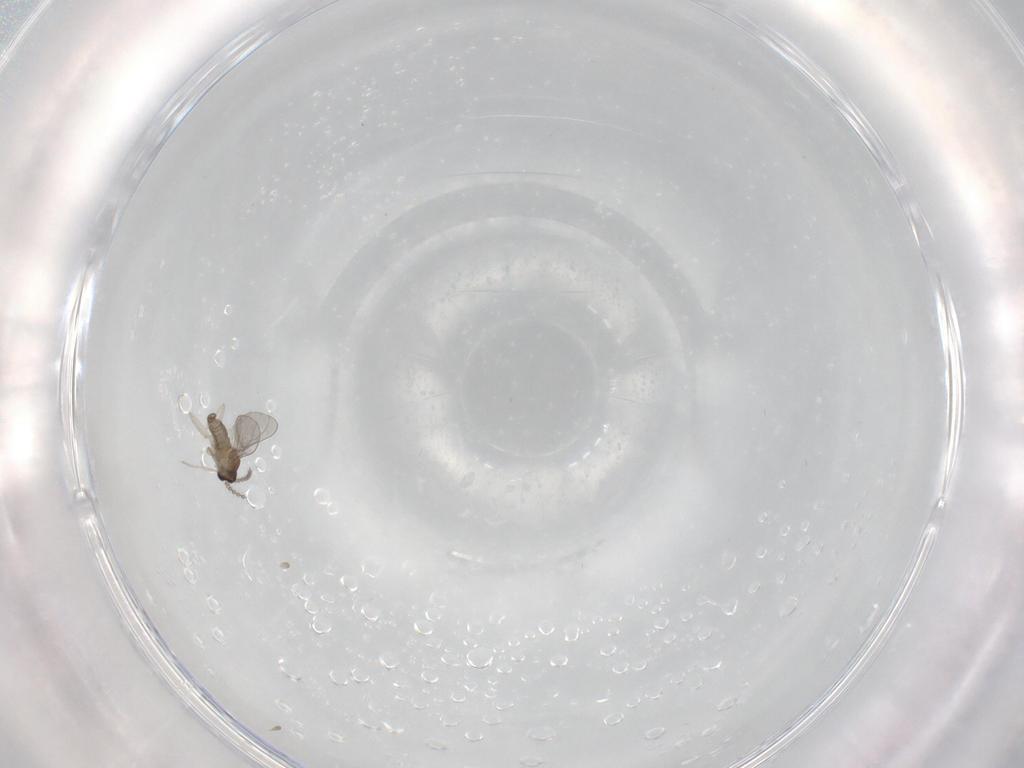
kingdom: Animalia
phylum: Arthropoda
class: Insecta
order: Diptera
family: Cecidomyiidae
